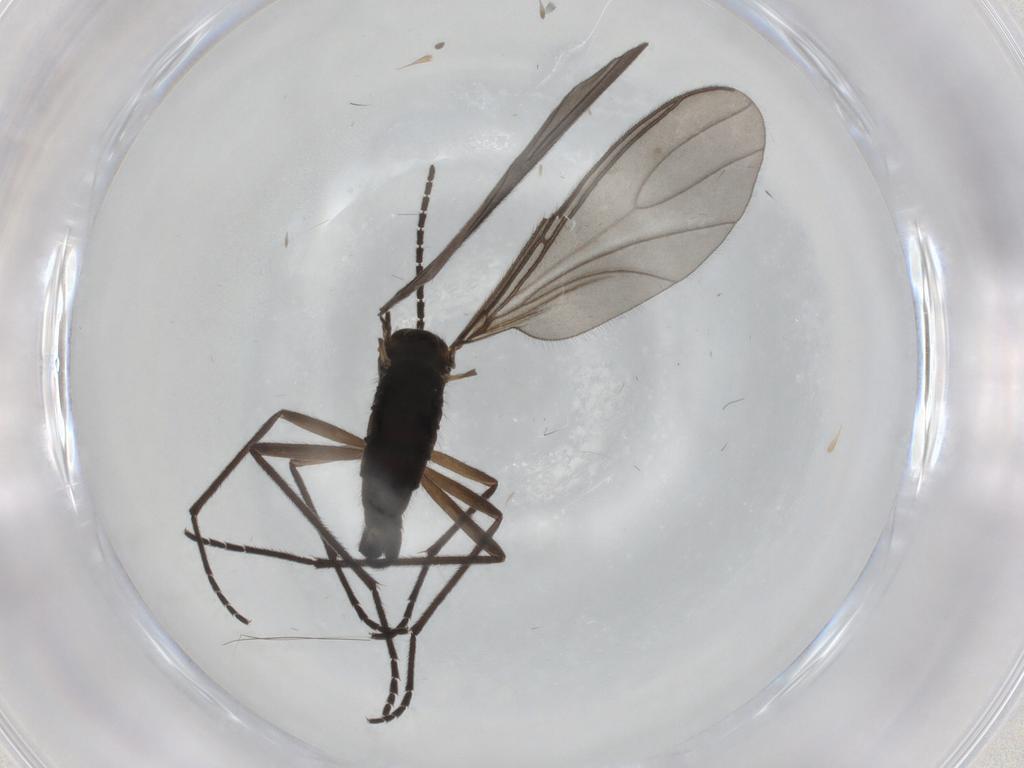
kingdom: Animalia
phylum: Arthropoda
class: Insecta
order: Diptera
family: Sciaridae
